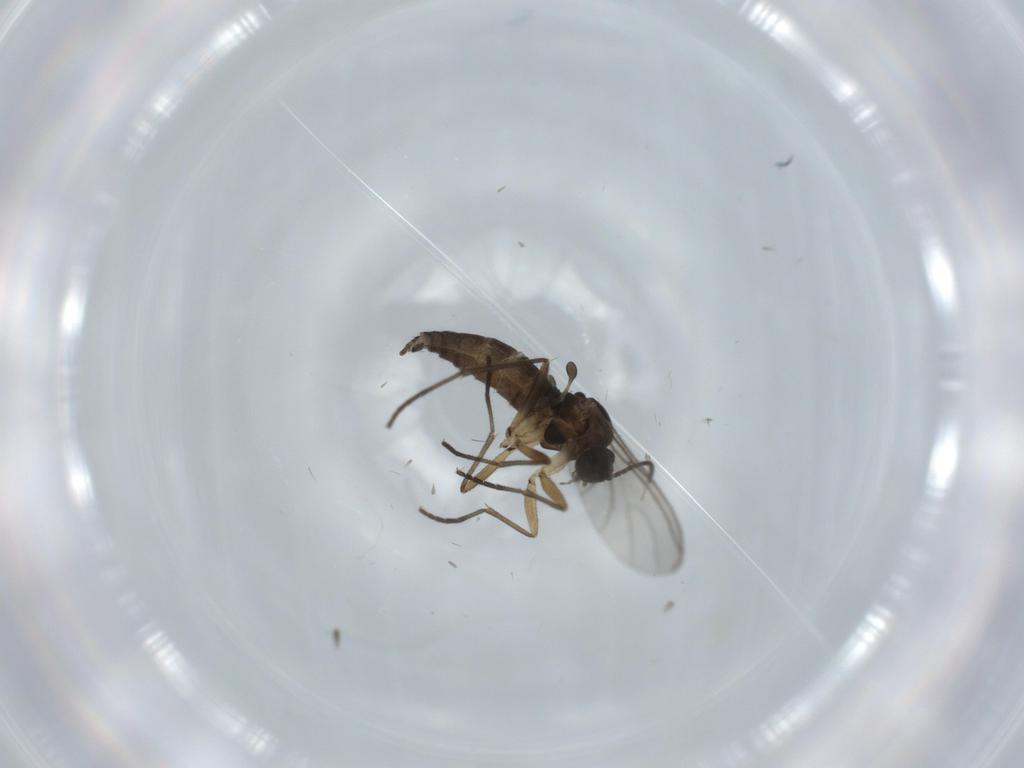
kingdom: Animalia
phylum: Arthropoda
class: Insecta
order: Diptera
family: Sciaridae
